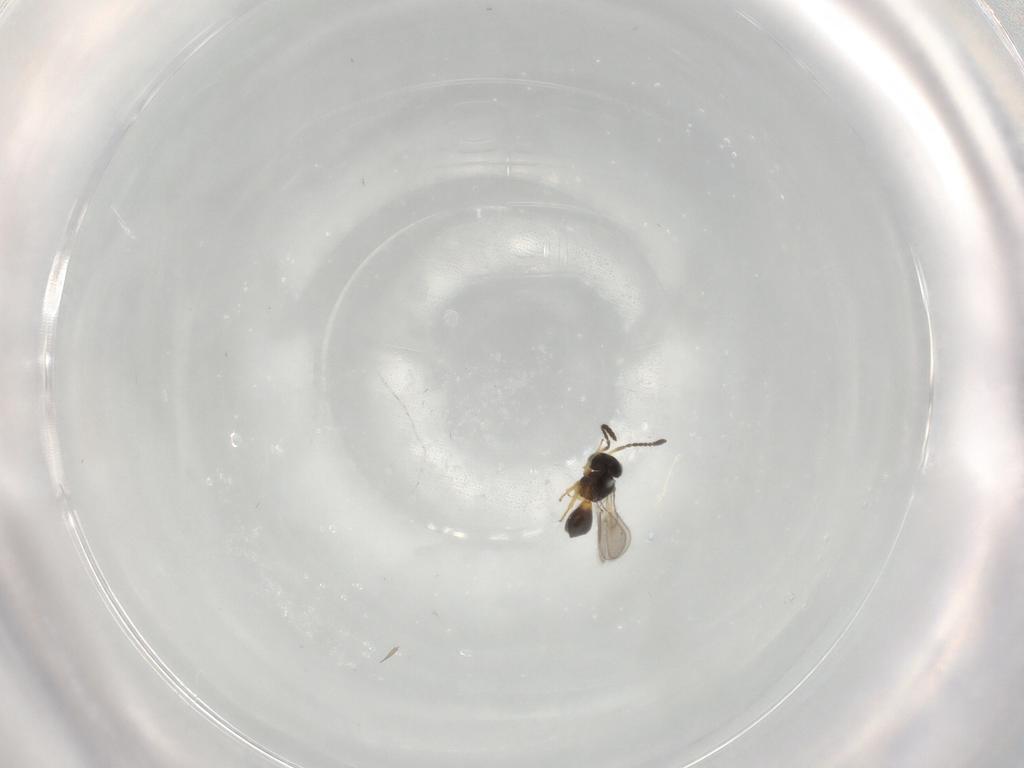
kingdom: Animalia
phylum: Arthropoda
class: Insecta
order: Hymenoptera
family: Scelionidae
